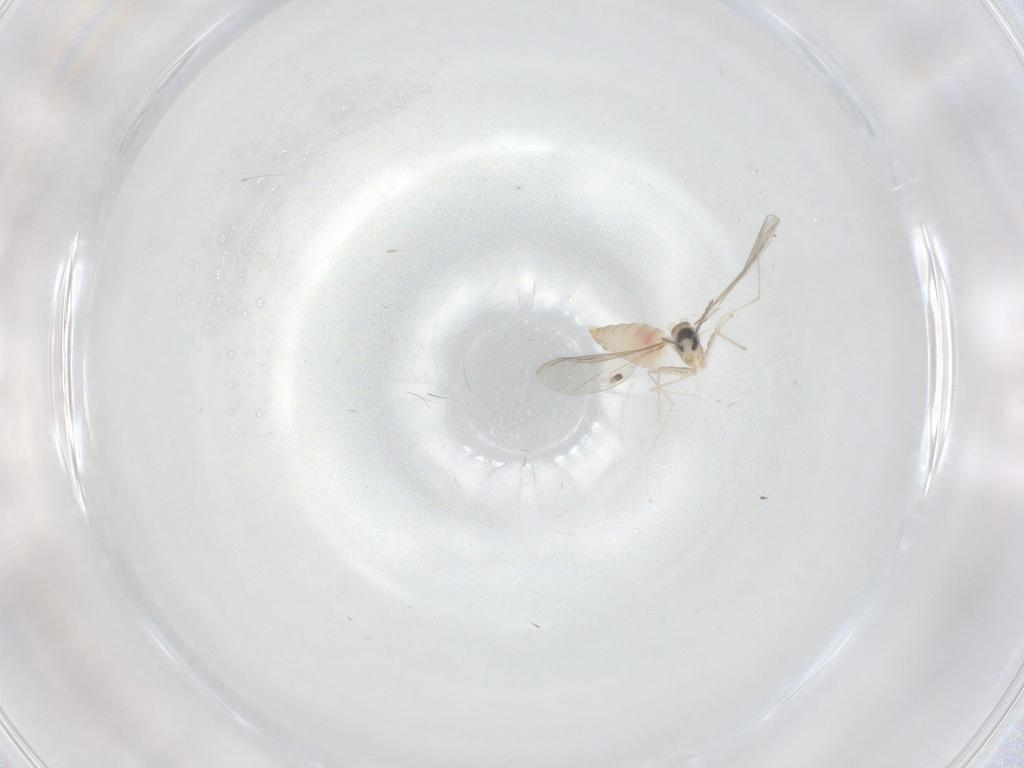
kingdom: Animalia
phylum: Arthropoda
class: Insecta
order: Diptera
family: Cecidomyiidae
